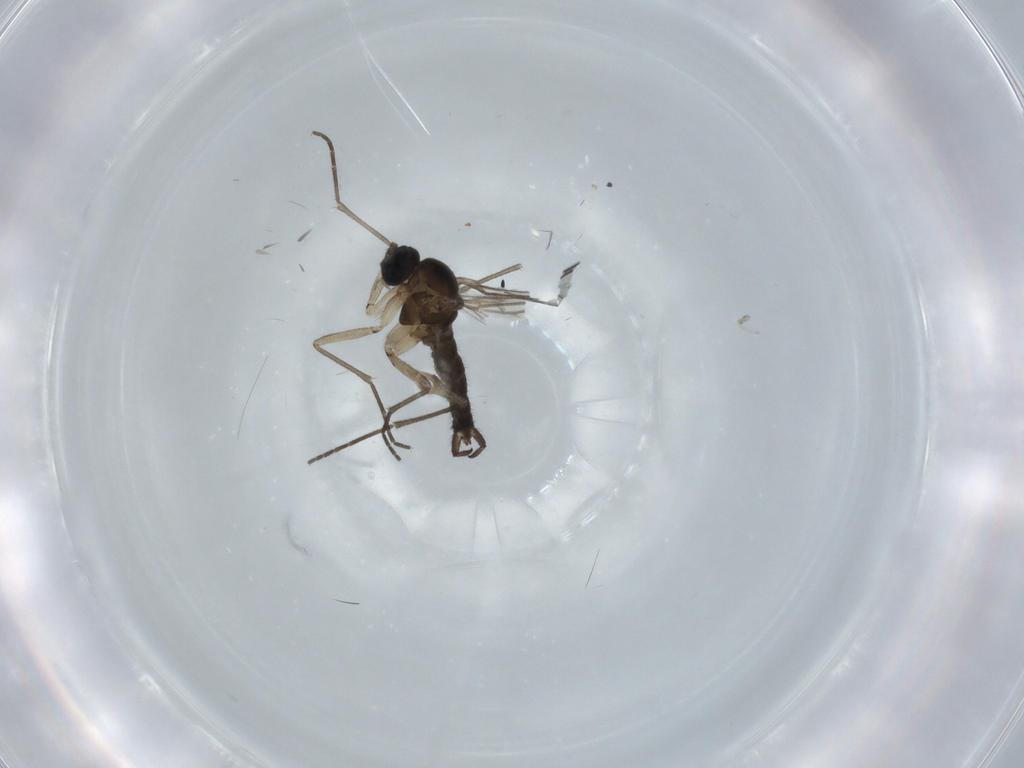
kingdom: Animalia
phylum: Arthropoda
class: Insecta
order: Diptera
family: Sciaridae
